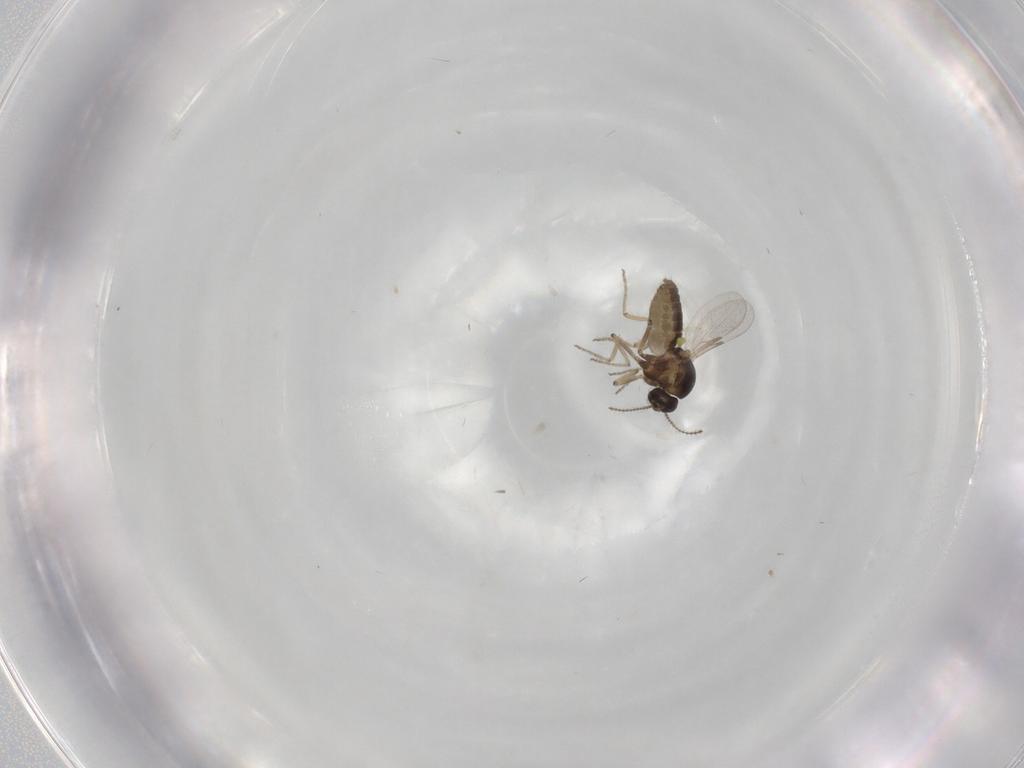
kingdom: Animalia
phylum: Arthropoda
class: Insecta
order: Diptera
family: Ceratopogonidae
